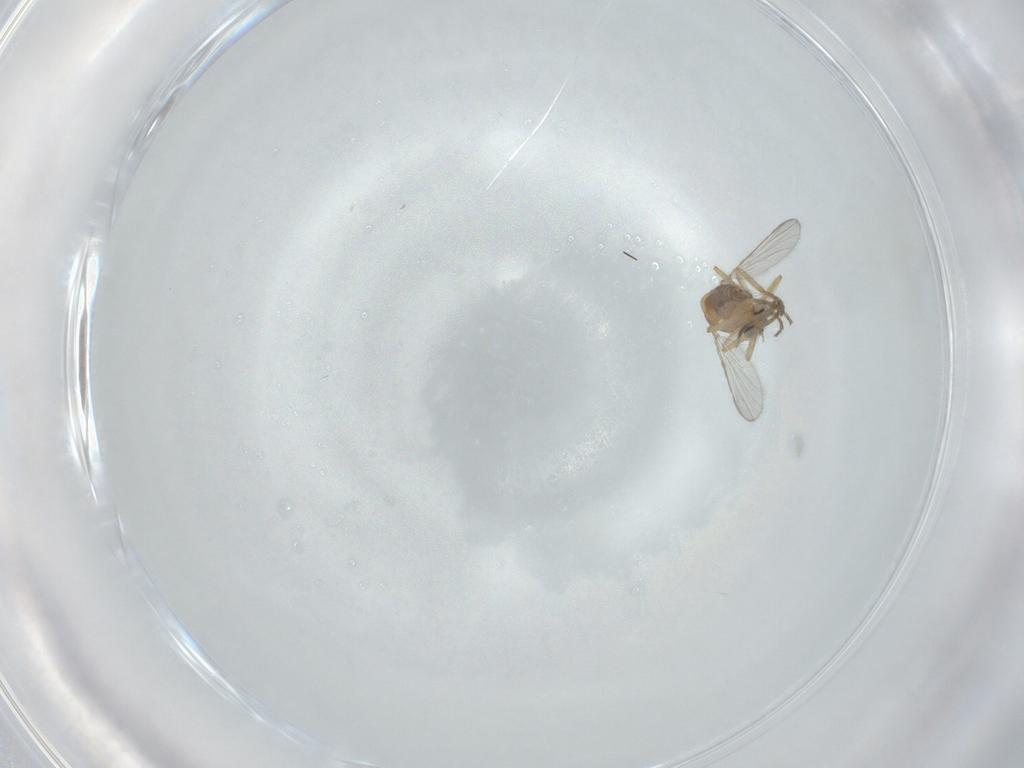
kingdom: Animalia
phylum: Arthropoda
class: Insecta
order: Diptera
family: Ceratopogonidae
